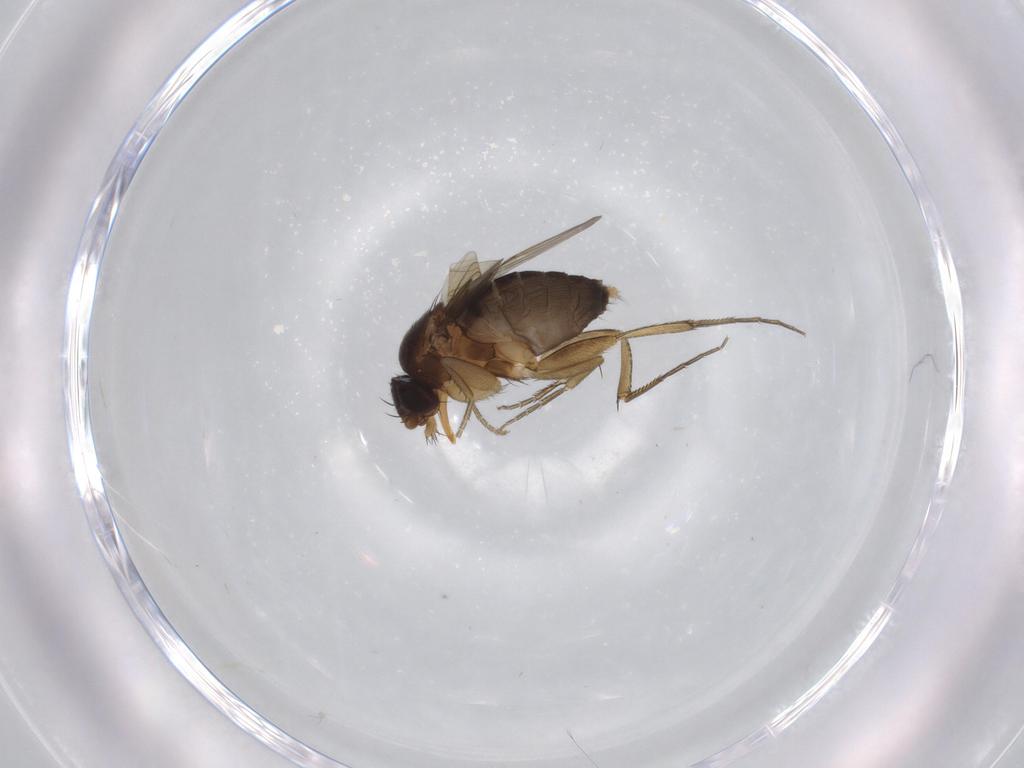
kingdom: Animalia
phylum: Arthropoda
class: Insecta
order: Diptera
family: Phoridae
